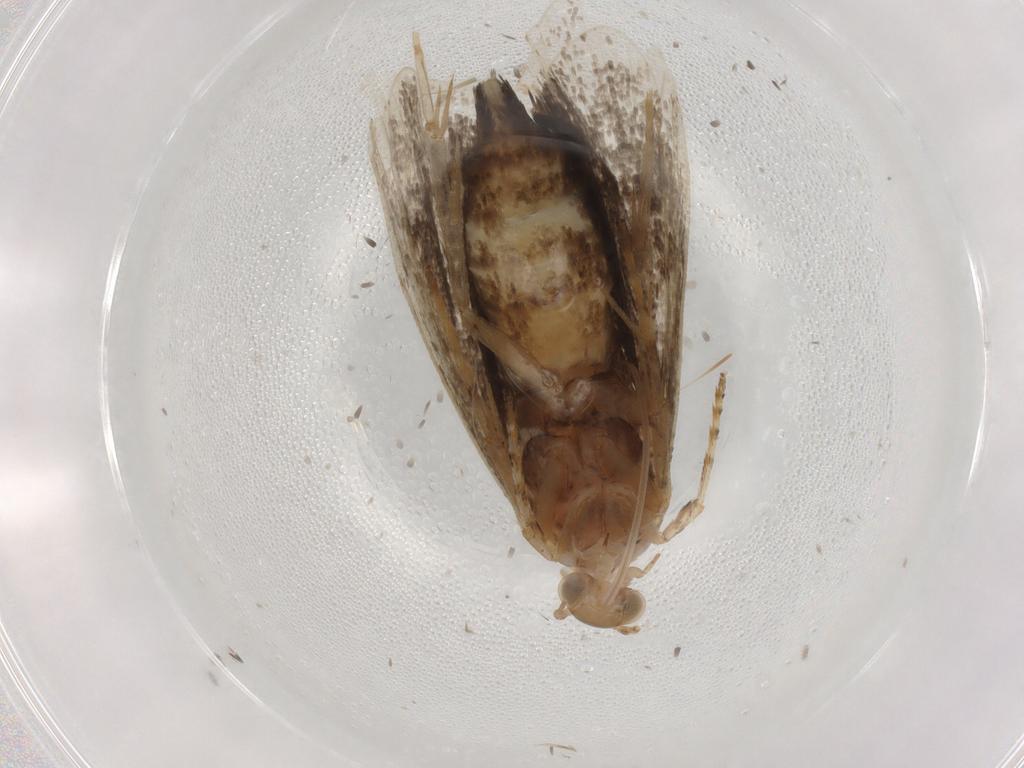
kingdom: Animalia
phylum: Arthropoda
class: Insecta
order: Lepidoptera
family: Choreutidae
